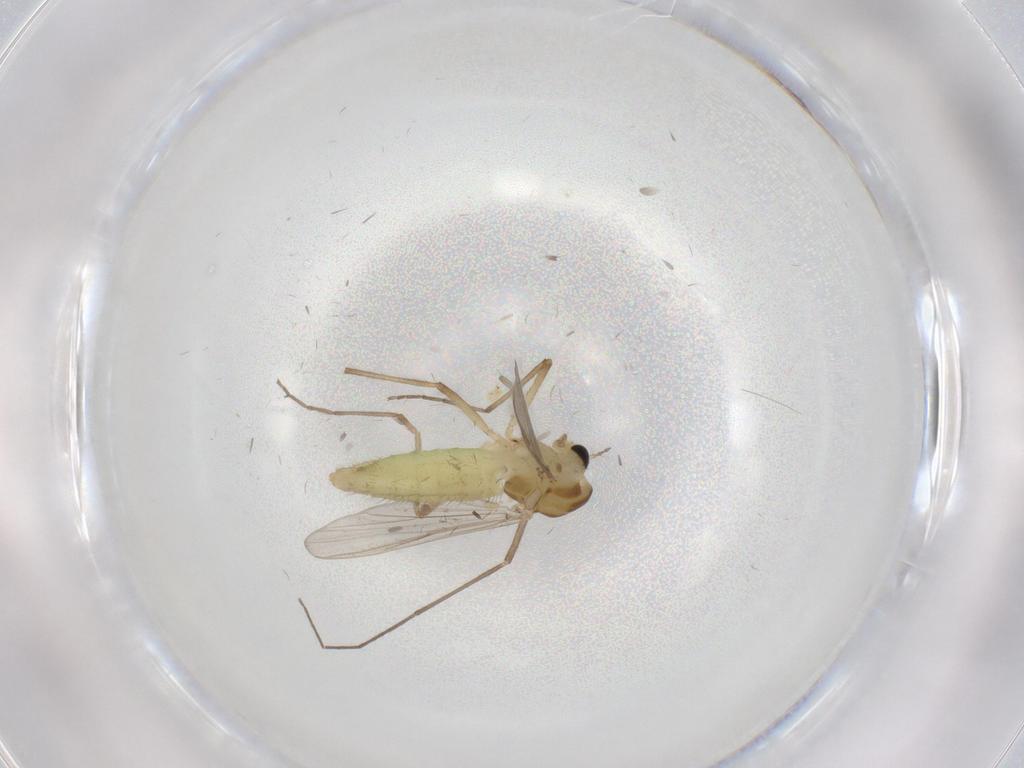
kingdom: Animalia
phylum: Arthropoda
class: Insecta
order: Diptera
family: Chironomidae
